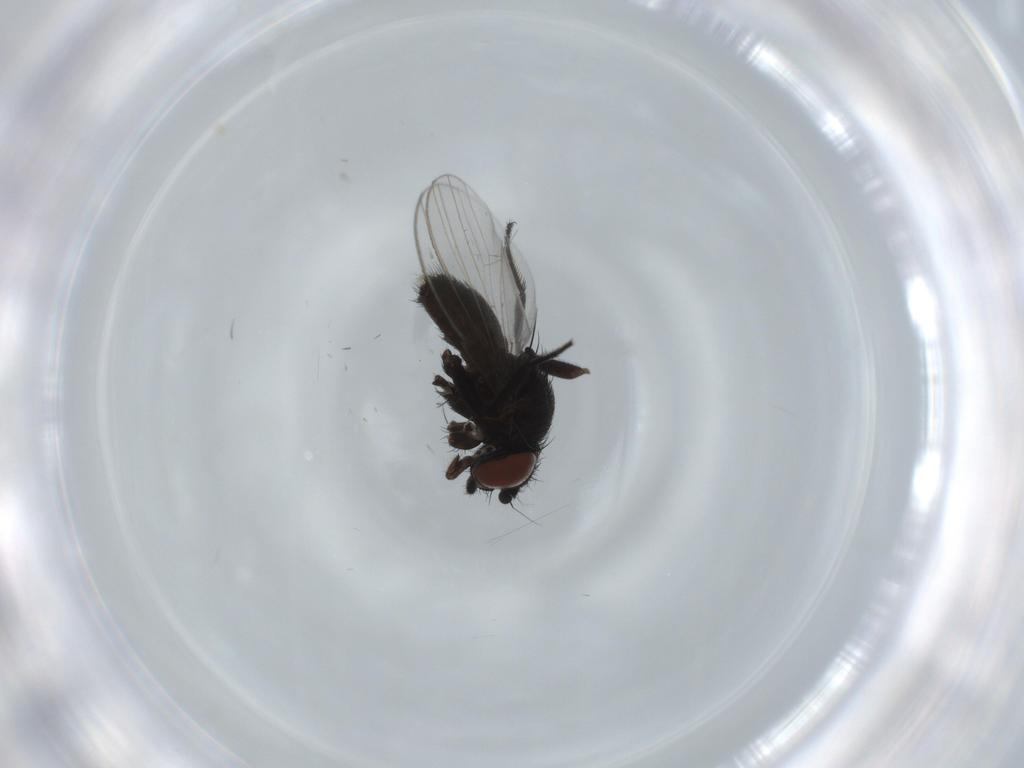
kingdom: Animalia
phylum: Arthropoda
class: Insecta
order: Diptera
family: Milichiidae
